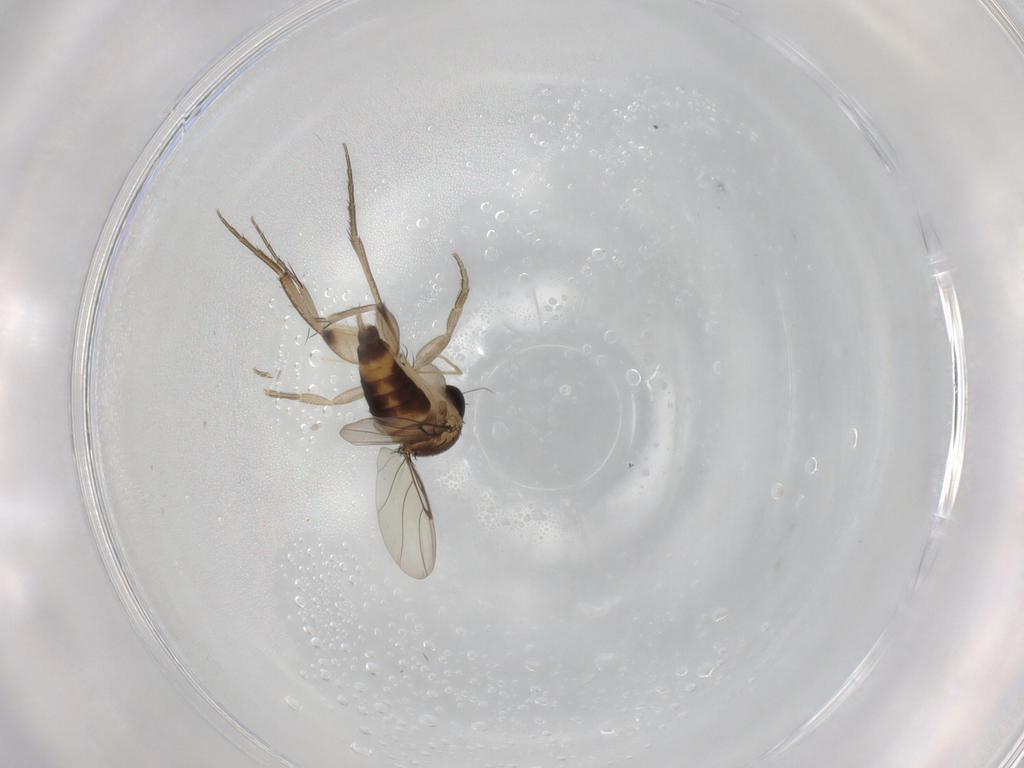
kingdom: Animalia
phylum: Arthropoda
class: Insecta
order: Diptera
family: Chironomidae
